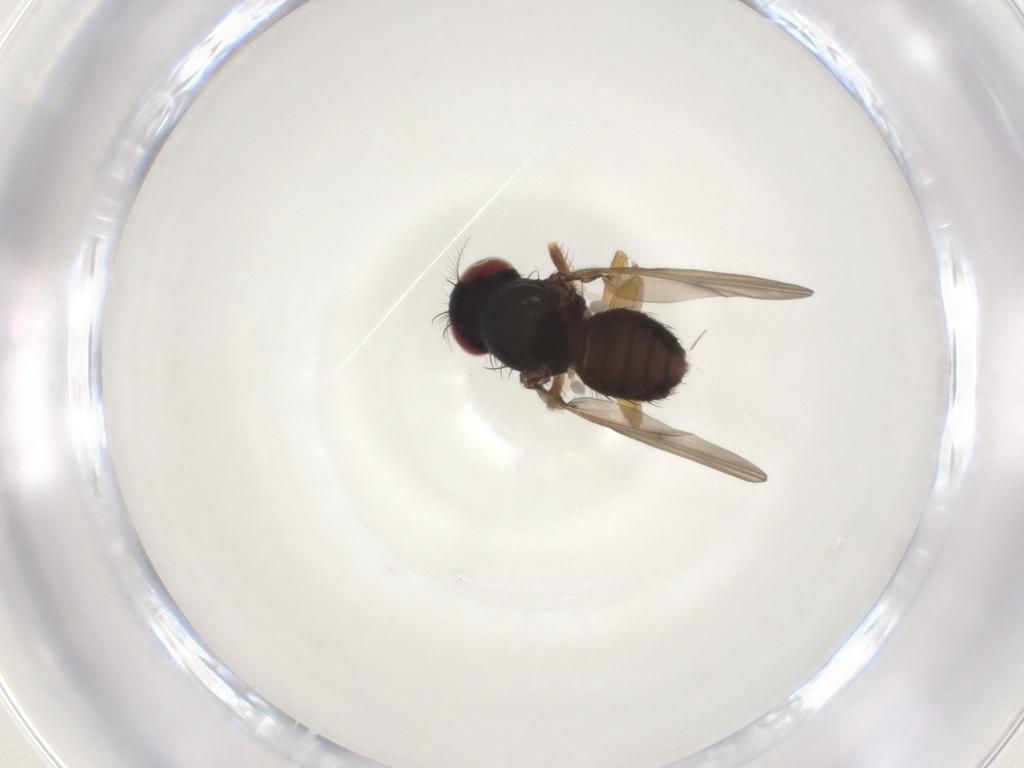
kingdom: Animalia
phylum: Arthropoda
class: Insecta
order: Diptera
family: Lauxaniidae
